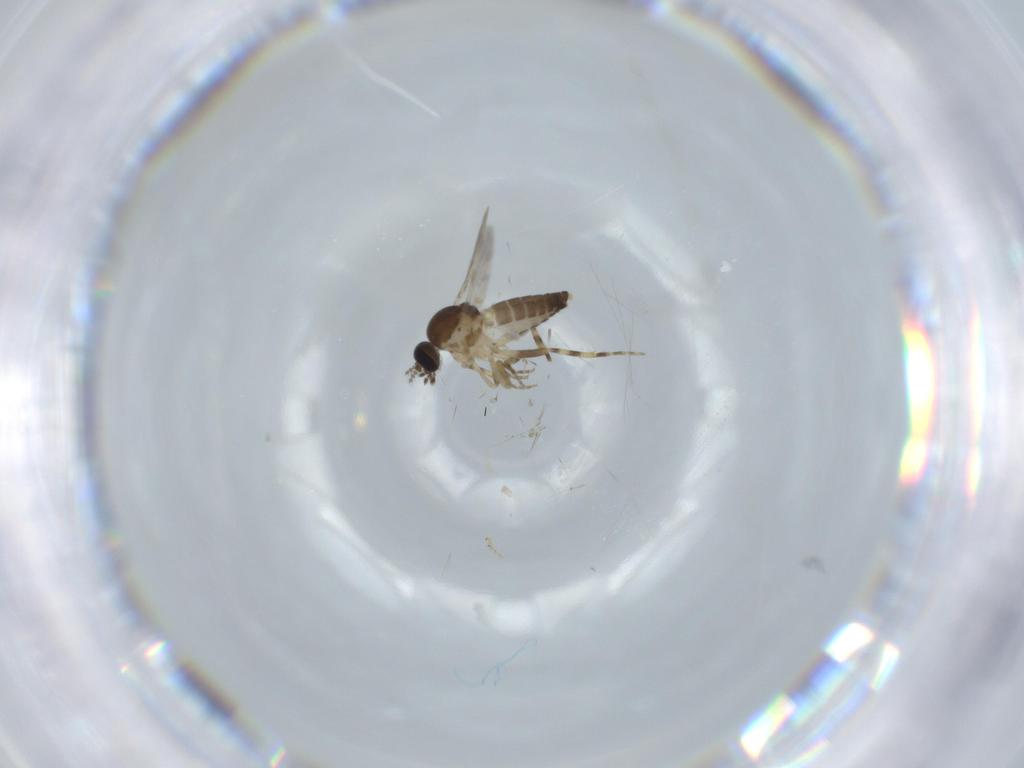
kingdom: Animalia
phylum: Arthropoda
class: Insecta
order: Diptera
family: Ceratopogonidae
